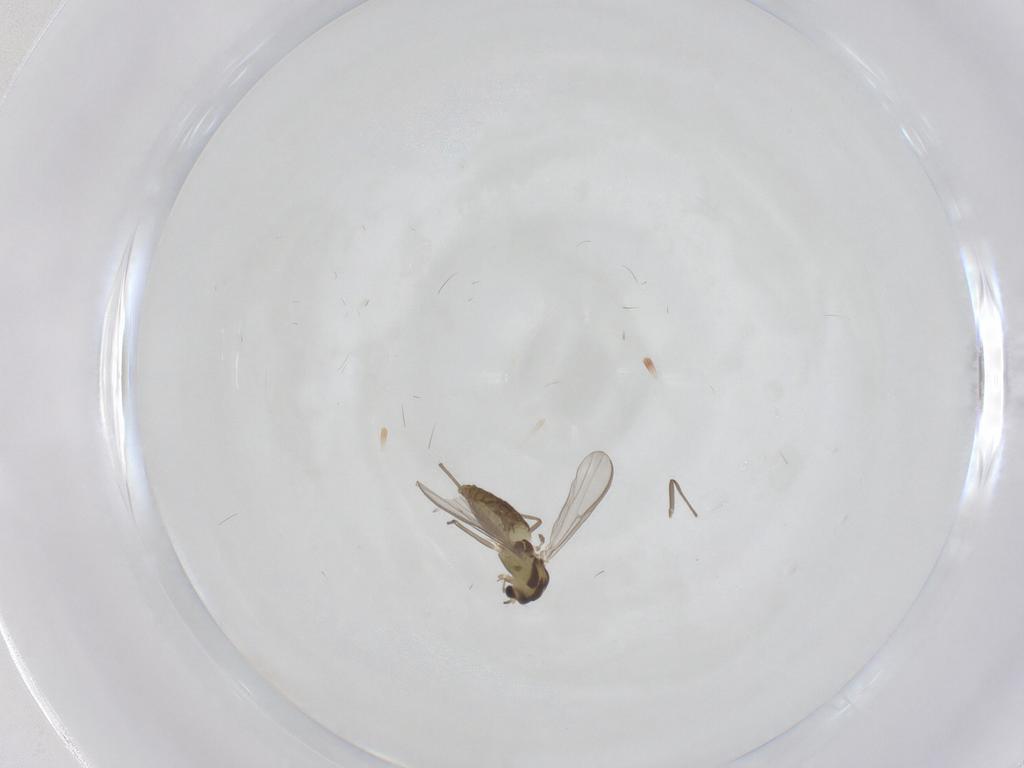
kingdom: Animalia
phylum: Arthropoda
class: Insecta
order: Diptera
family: Chironomidae
